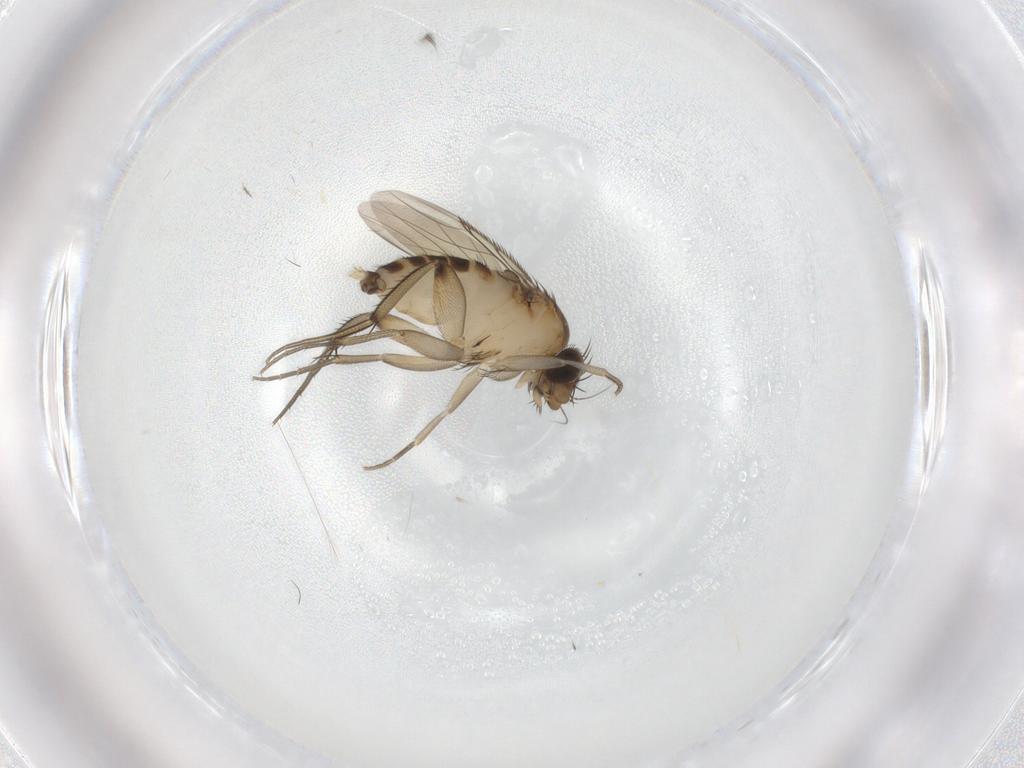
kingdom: Animalia
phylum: Arthropoda
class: Insecta
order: Diptera
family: Phoridae
